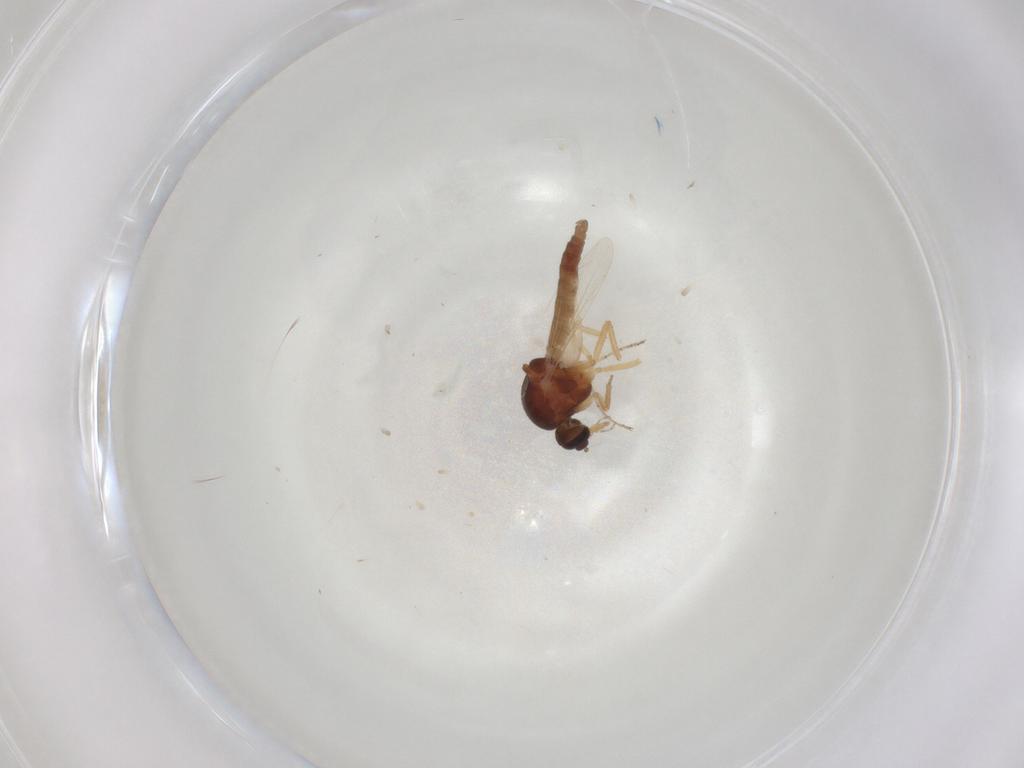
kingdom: Animalia
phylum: Arthropoda
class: Insecta
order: Diptera
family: Ceratopogonidae
